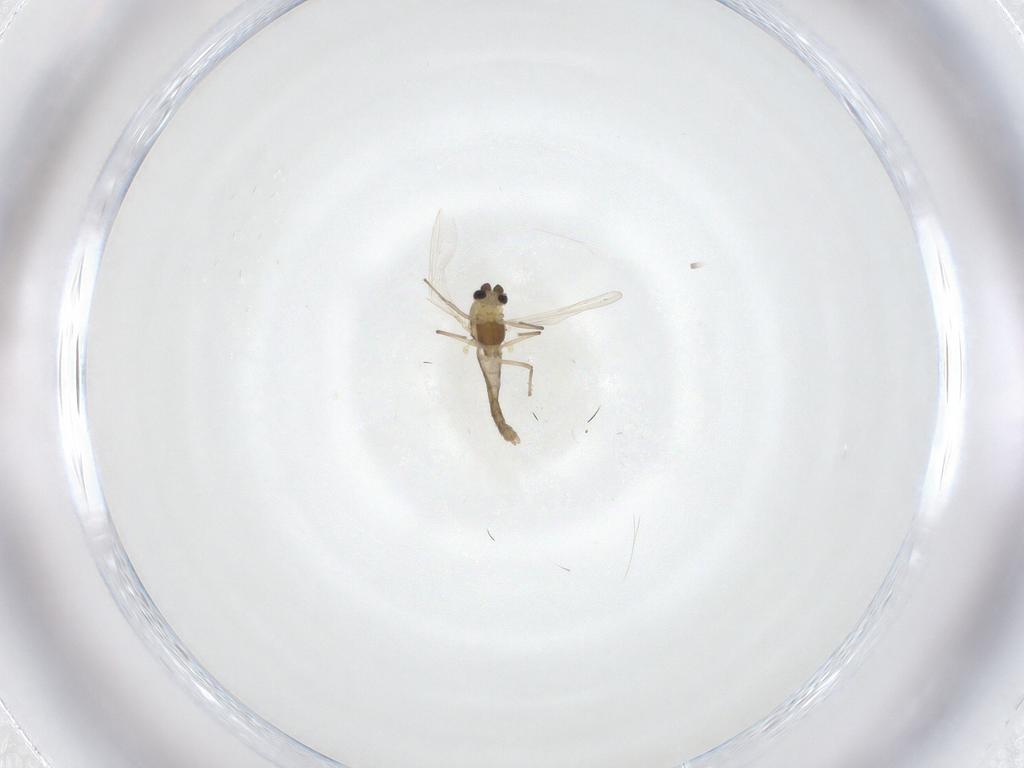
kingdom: Animalia
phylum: Arthropoda
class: Insecta
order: Diptera
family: Chironomidae
